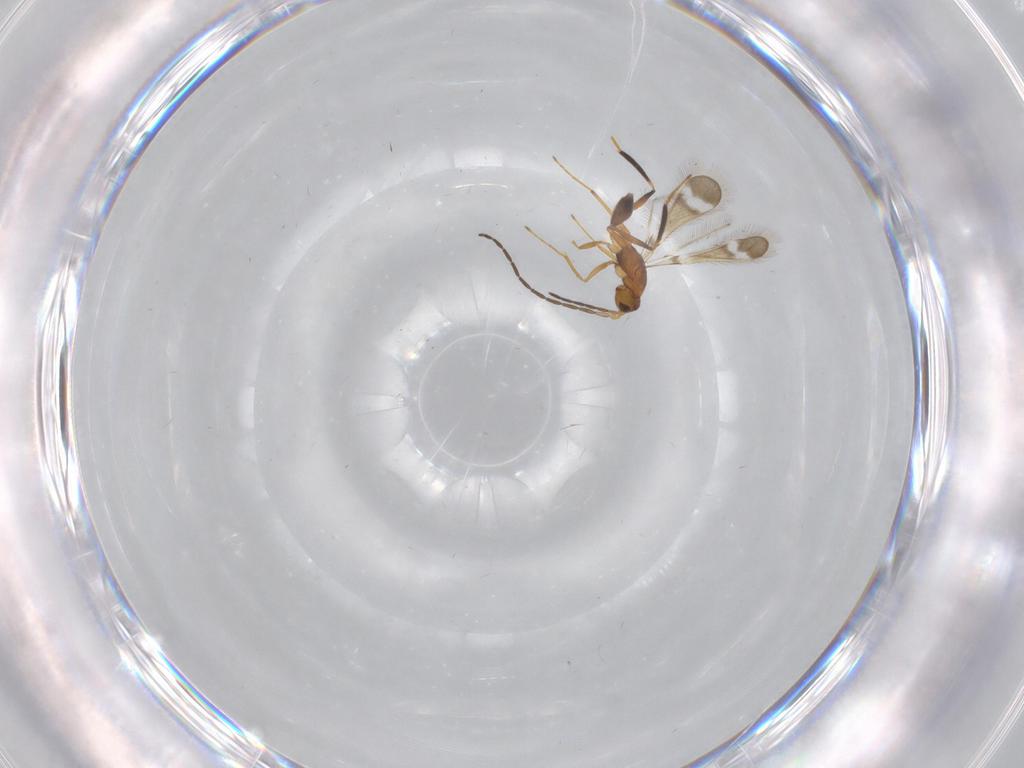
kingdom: Animalia
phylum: Arthropoda
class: Insecta
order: Hymenoptera
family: Mymaridae
